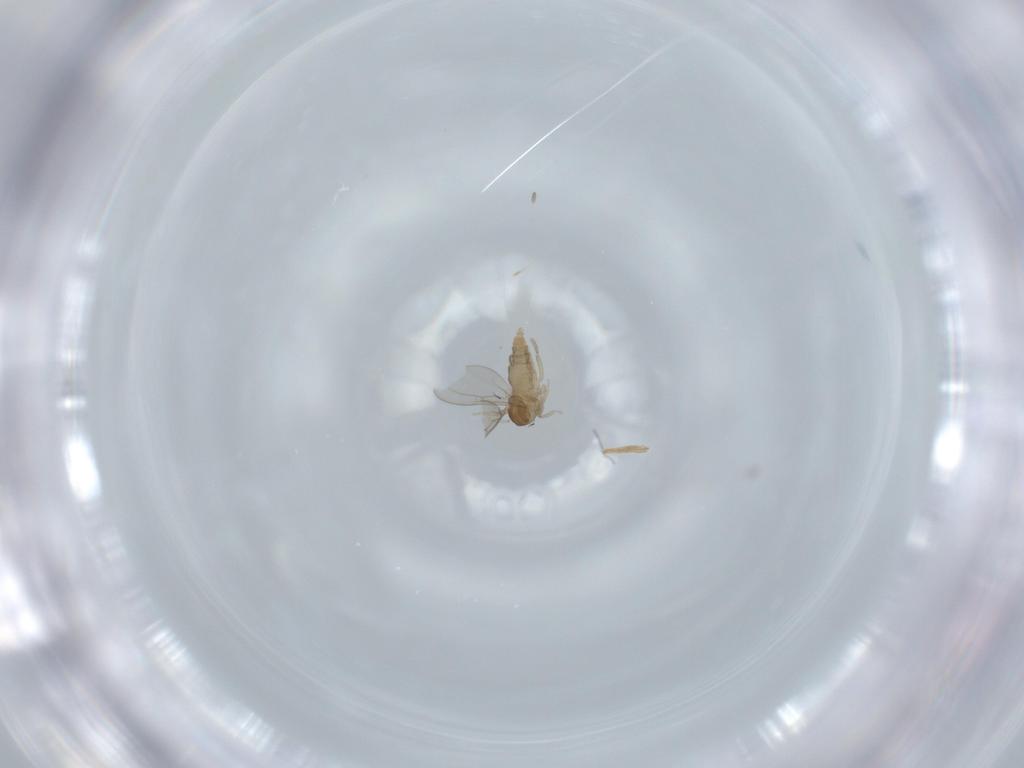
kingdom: Animalia
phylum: Arthropoda
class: Insecta
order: Diptera
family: Cecidomyiidae
